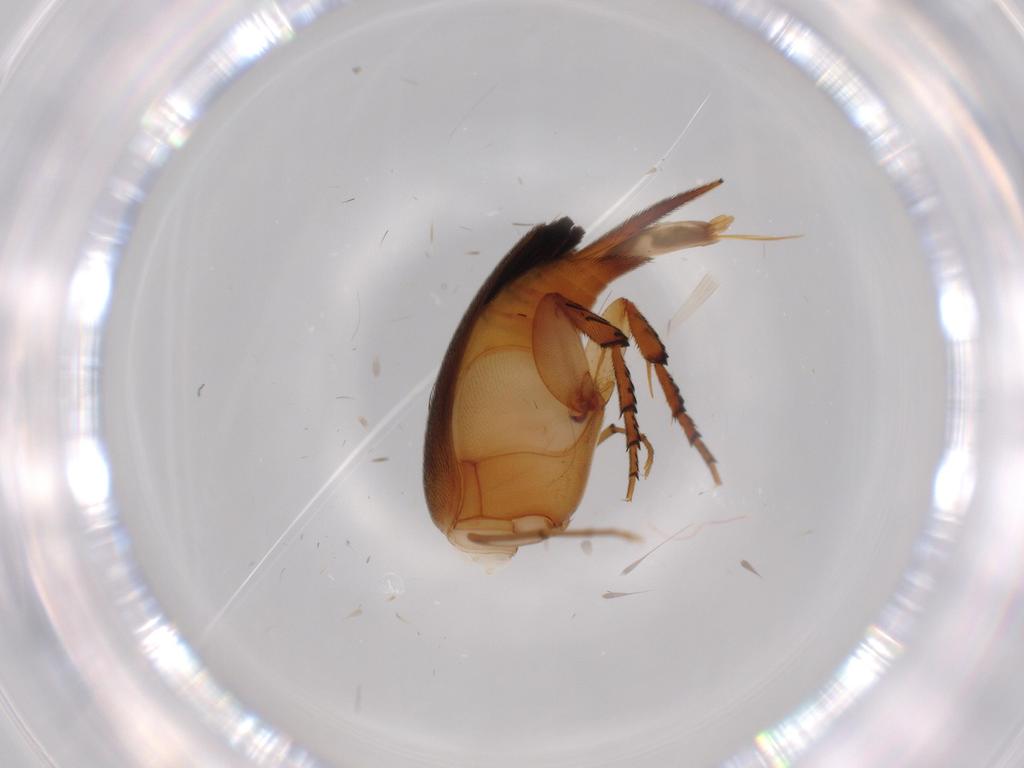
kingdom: Animalia
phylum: Arthropoda
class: Insecta
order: Coleoptera
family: Mordellidae
